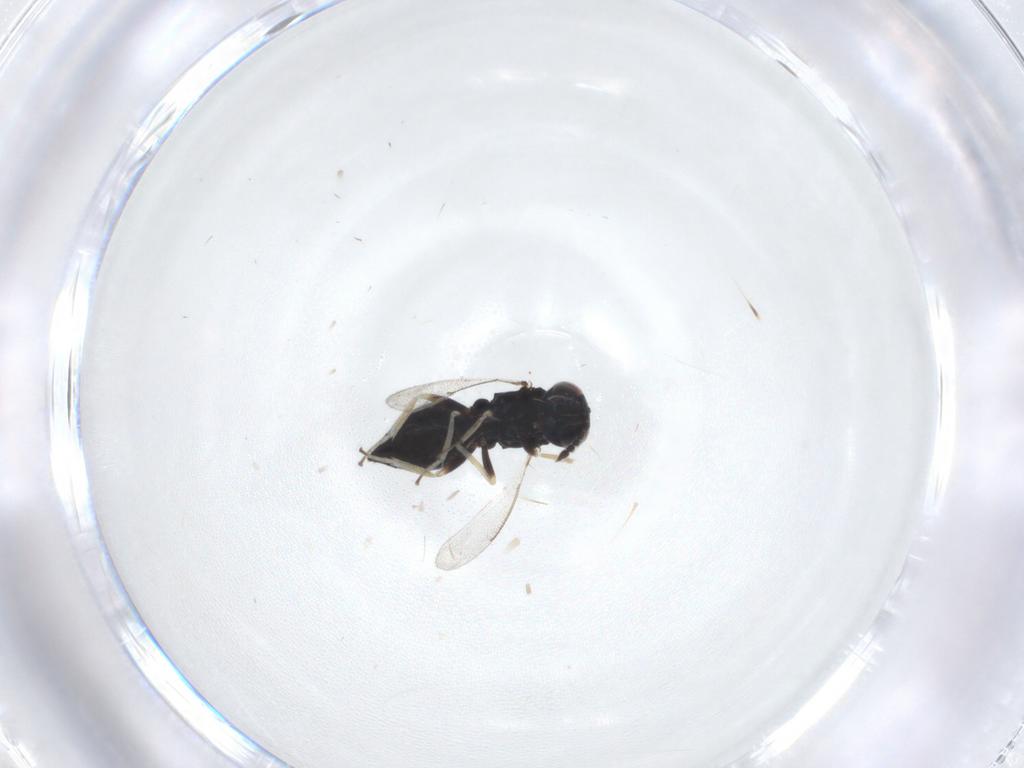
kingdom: Animalia
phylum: Arthropoda
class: Insecta
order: Hymenoptera
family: Eulophidae
